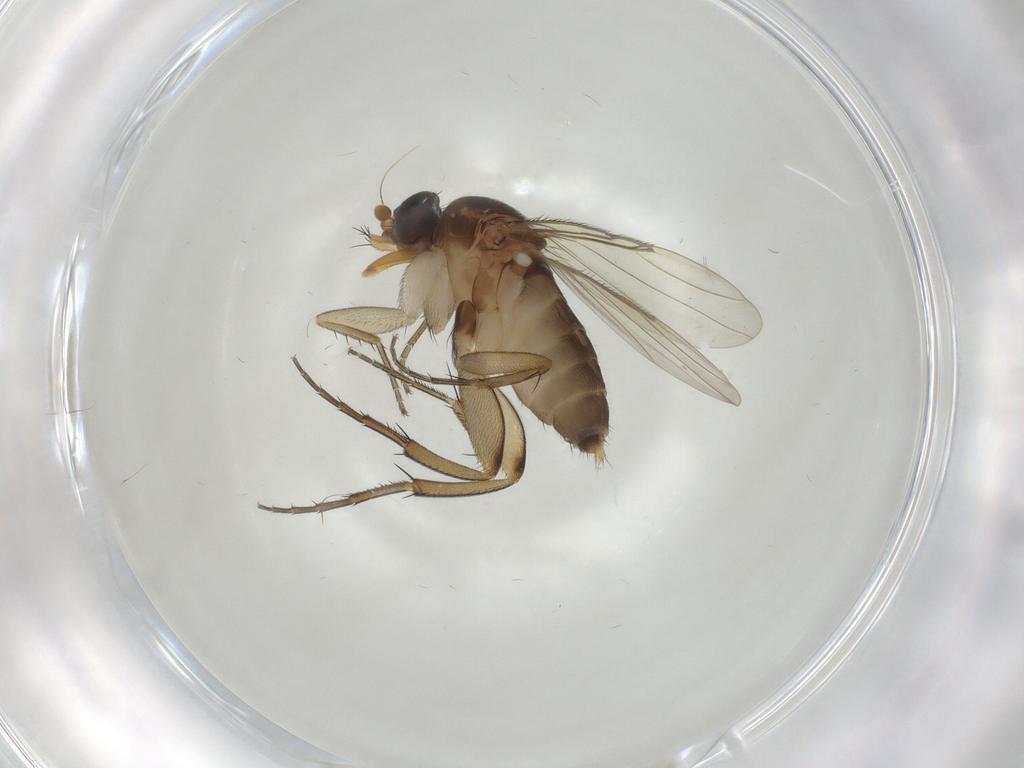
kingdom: Animalia
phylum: Arthropoda
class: Insecta
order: Diptera
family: Phoridae
